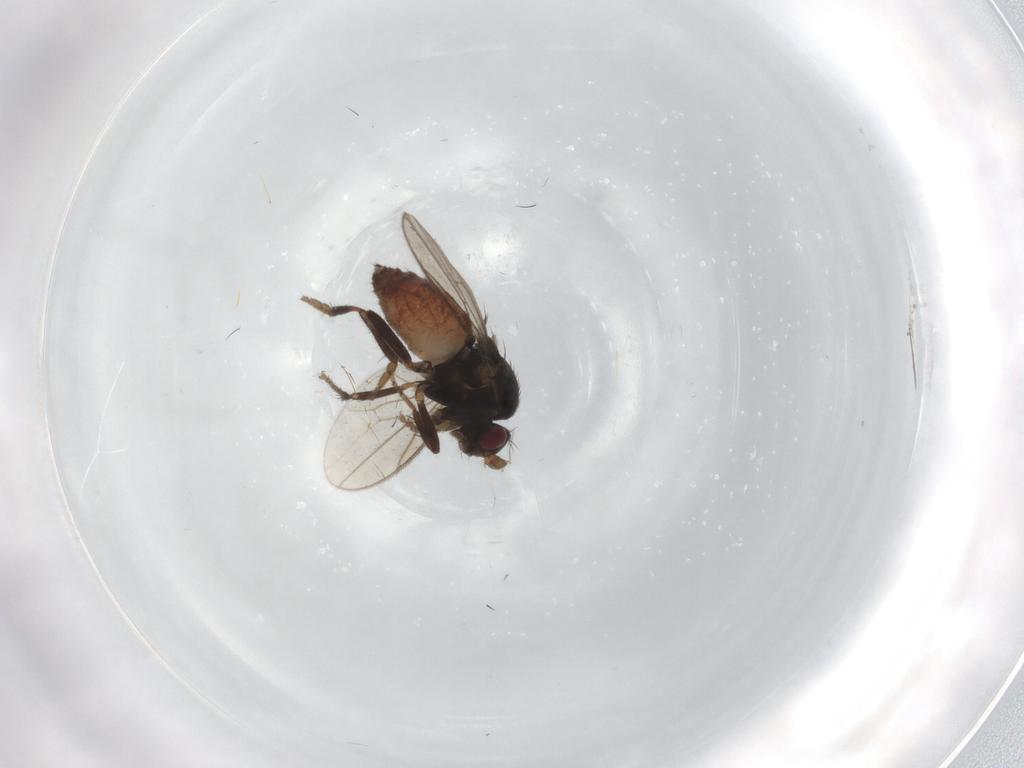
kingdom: Animalia
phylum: Arthropoda
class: Insecta
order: Diptera
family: Sphaeroceridae
